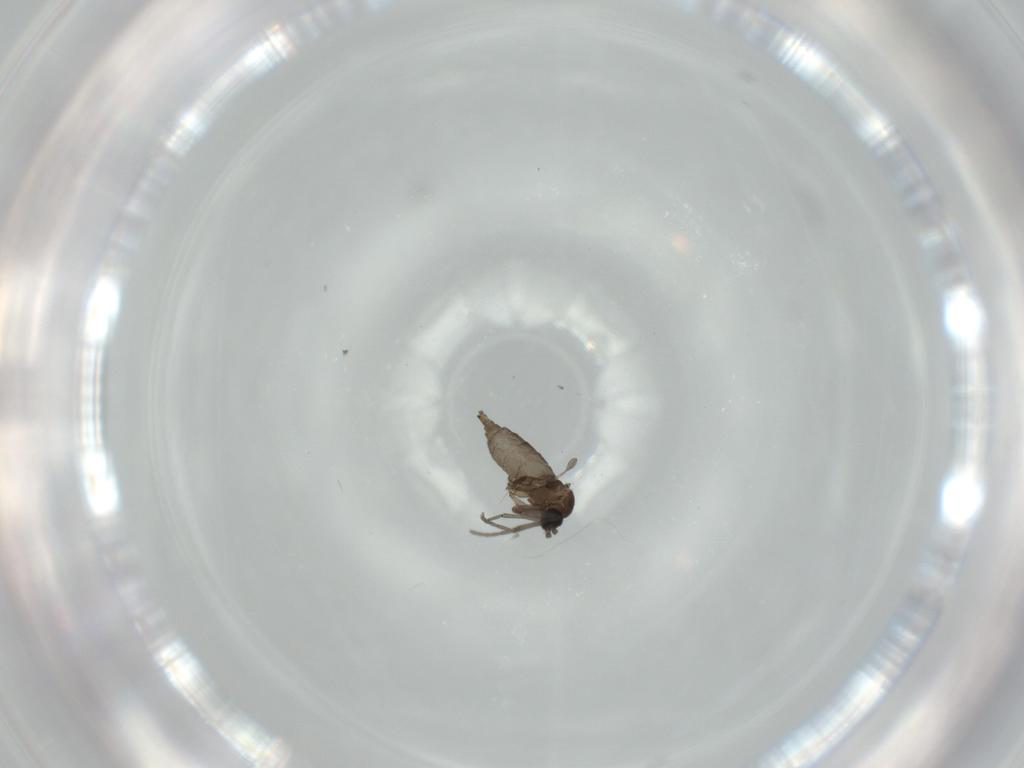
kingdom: Animalia
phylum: Arthropoda
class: Insecta
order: Diptera
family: Sciaridae
